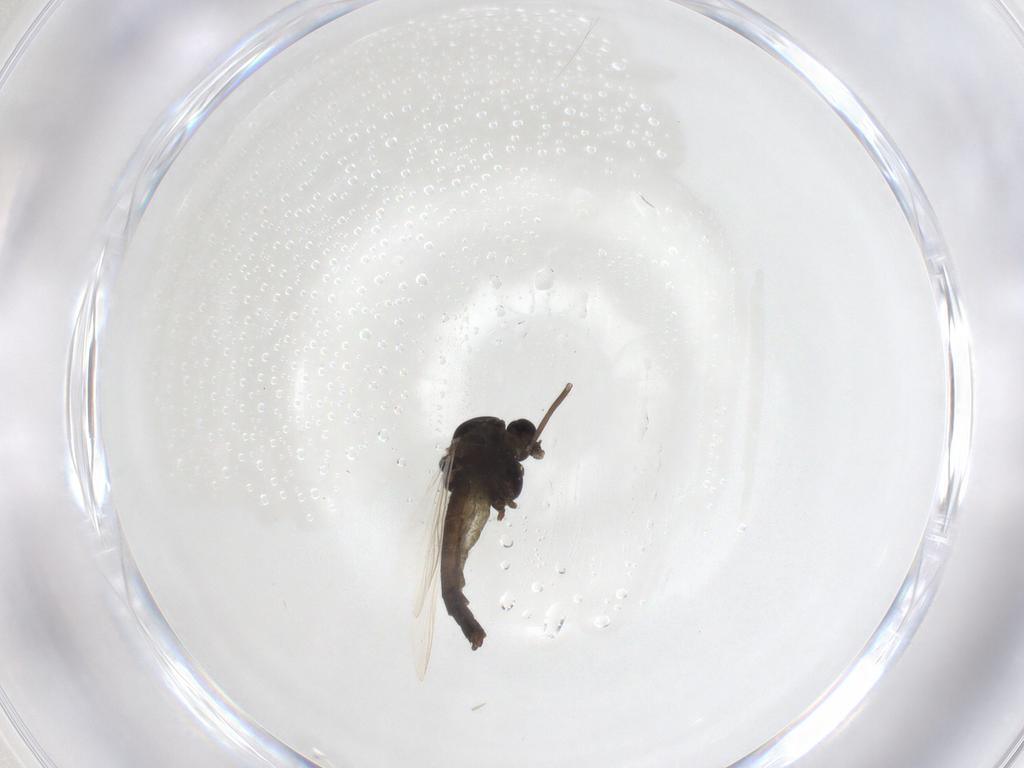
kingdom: Animalia
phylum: Arthropoda
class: Insecta
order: Diptera
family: Chironomidae
